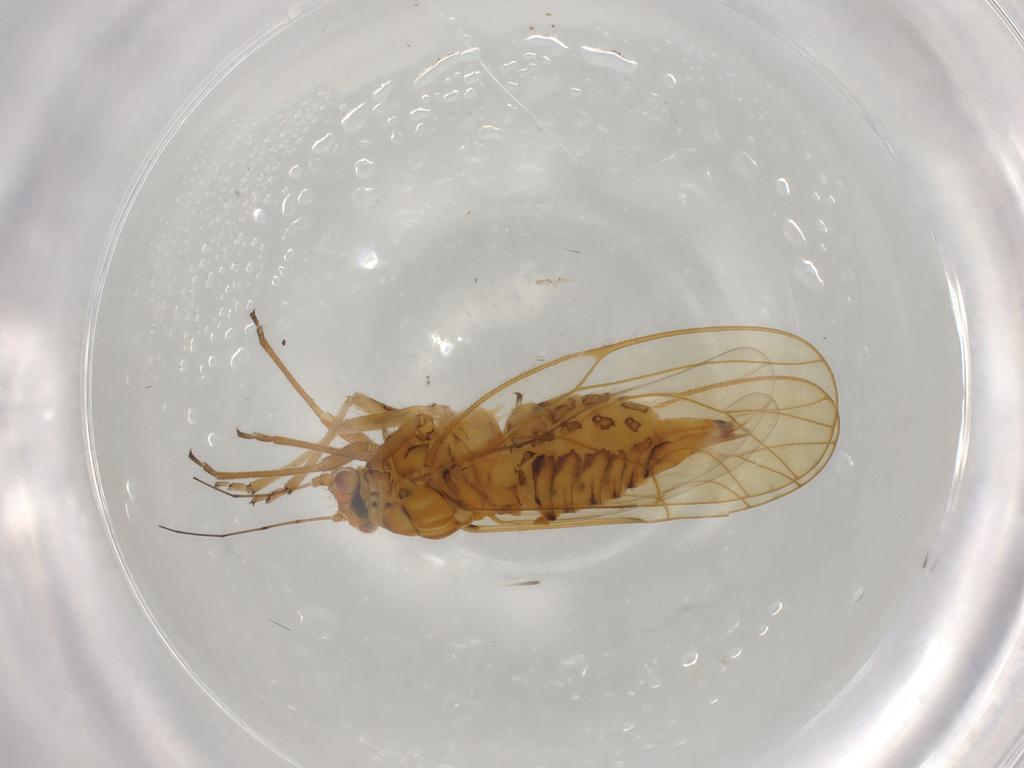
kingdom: Animalia
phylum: Arthropoda
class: Insecta
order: Hemiptera
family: Psyllidae
